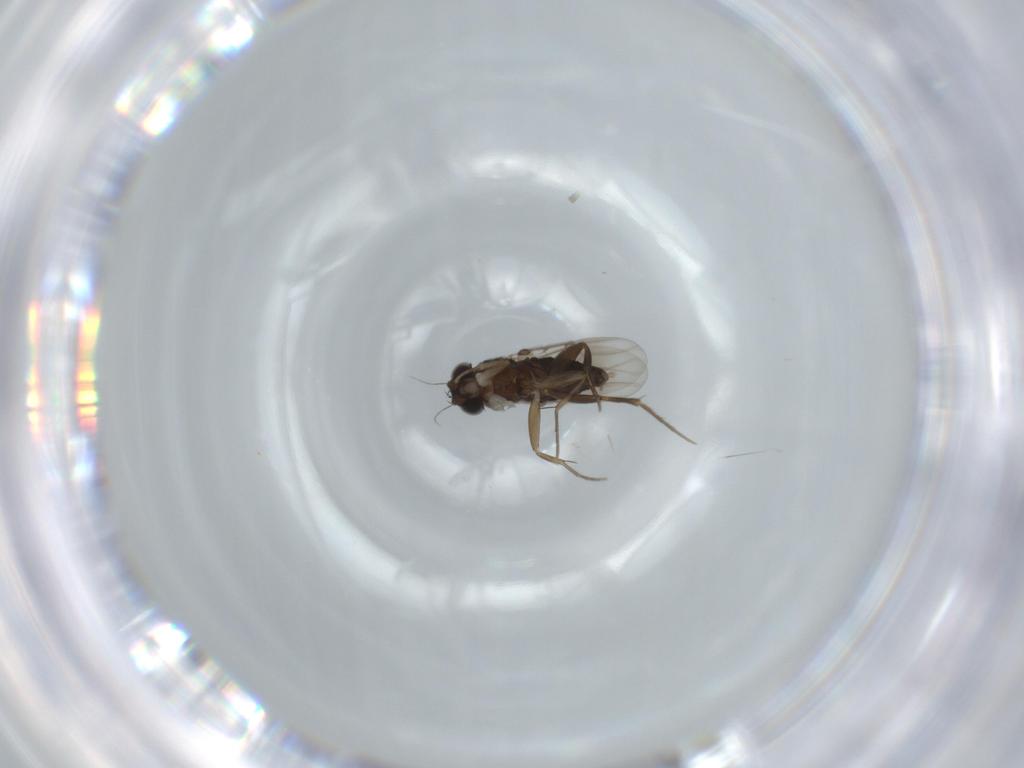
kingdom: Animalia
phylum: Arthropoda
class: Insecta
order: Diptera
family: Phoridae
